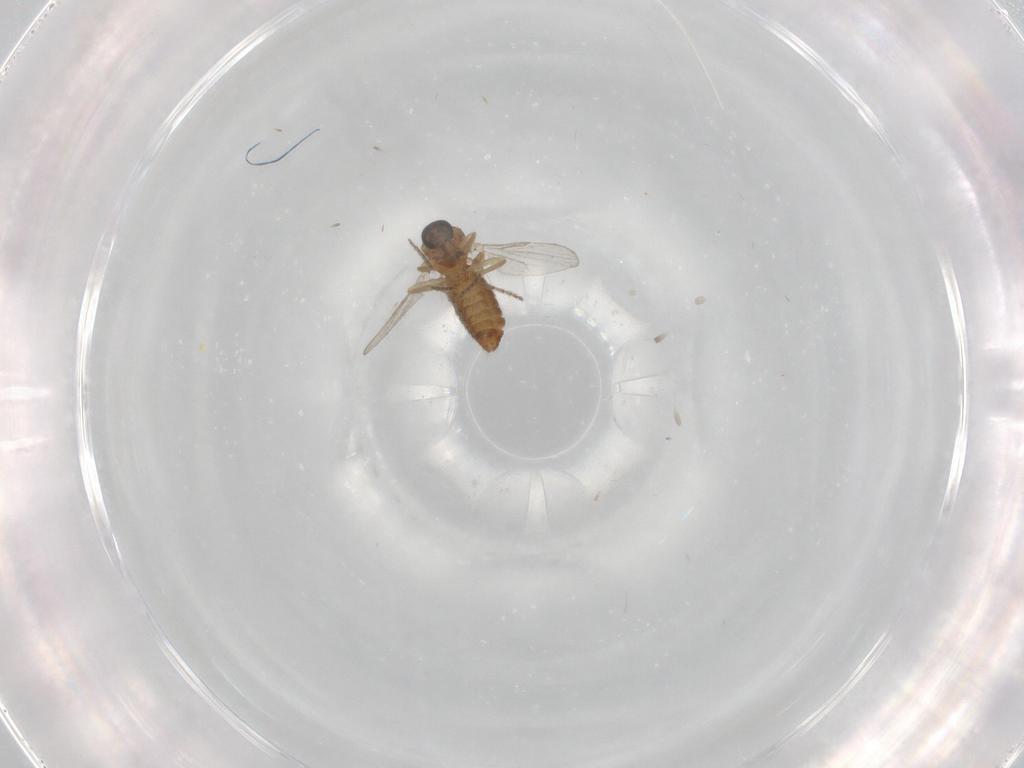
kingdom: Animalia
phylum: Arthropoda
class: Insecta
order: Diptera
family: Ceratopogonidae
